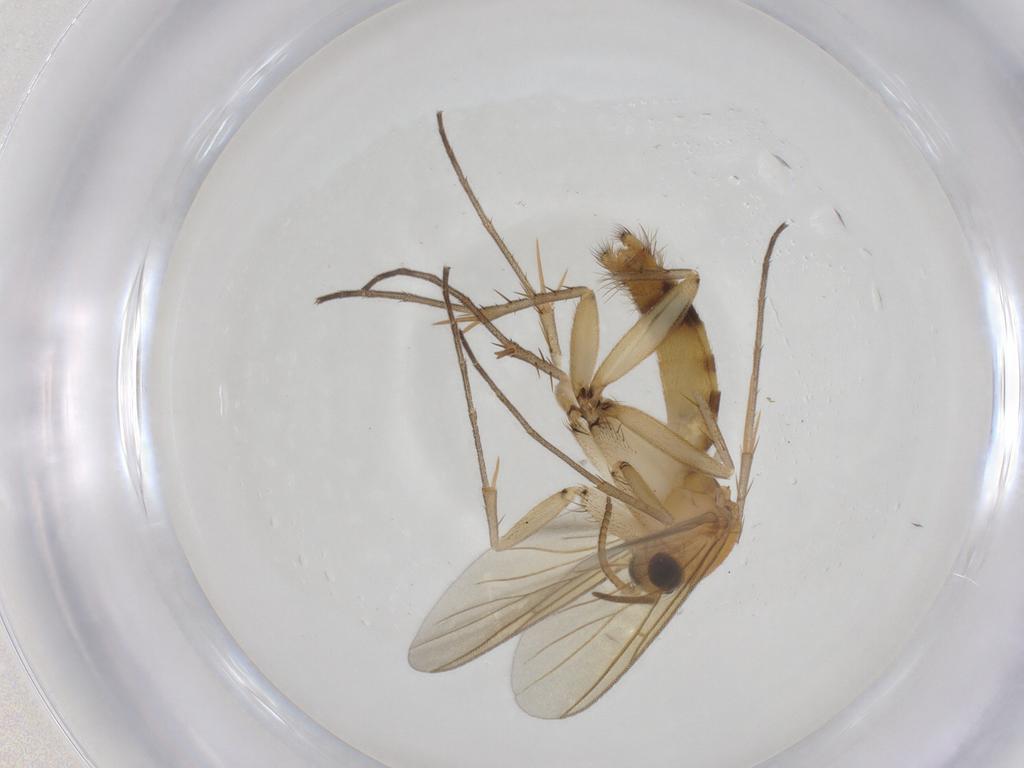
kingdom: Animalia
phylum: Arthropoda
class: Insecta
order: Diptera
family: Mycetophilidae
